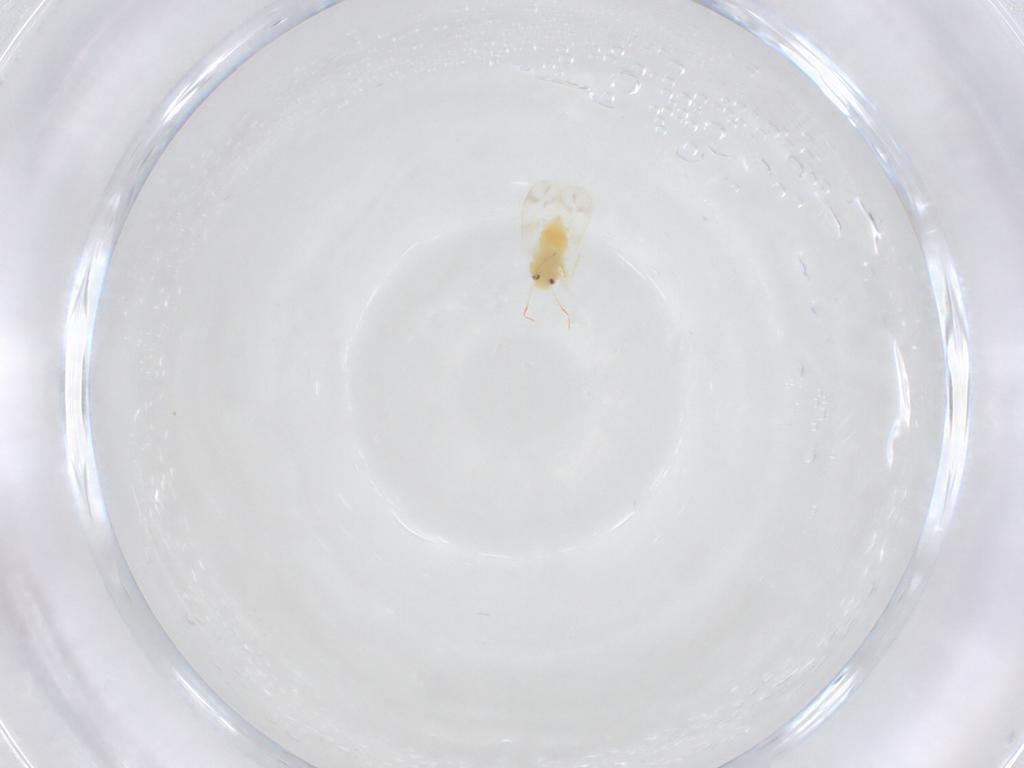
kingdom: Animalia
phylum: Arthropoda
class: Insecta
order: Hemiptera
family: Aleyrodidae
